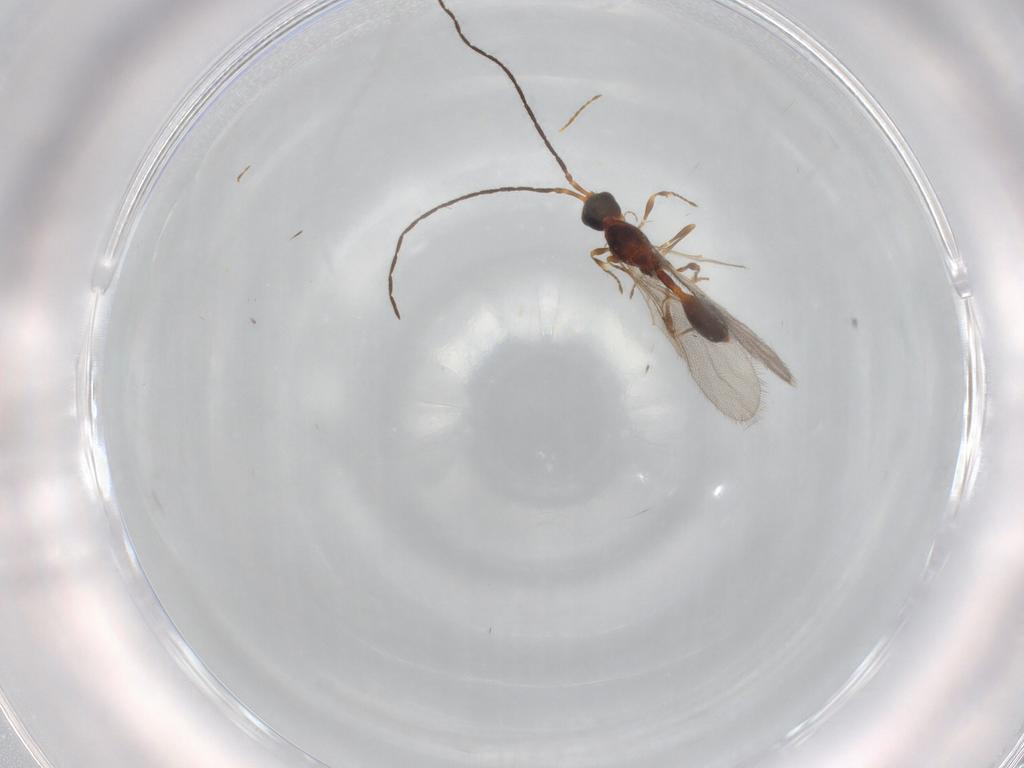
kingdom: Animalia
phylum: Arthropoda
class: Insecta
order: Hymenoptera
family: Diapriidae
